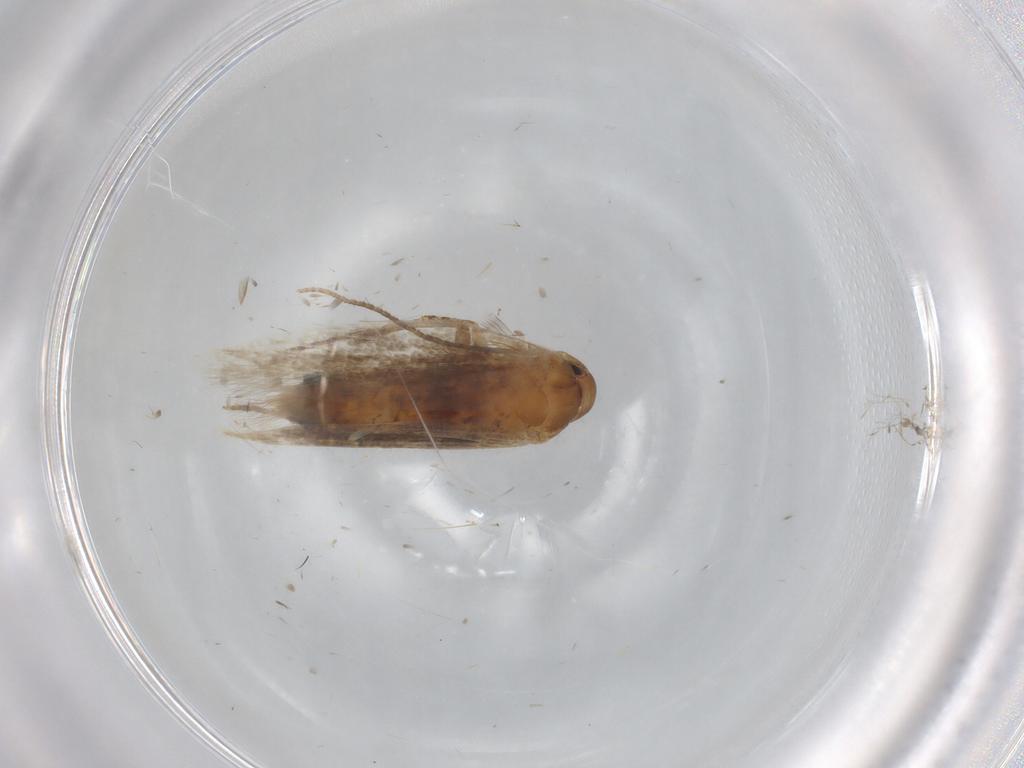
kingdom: Animalia
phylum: Arthropoda
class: Insecta
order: Lepidoptera
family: Cosmopterigidae
